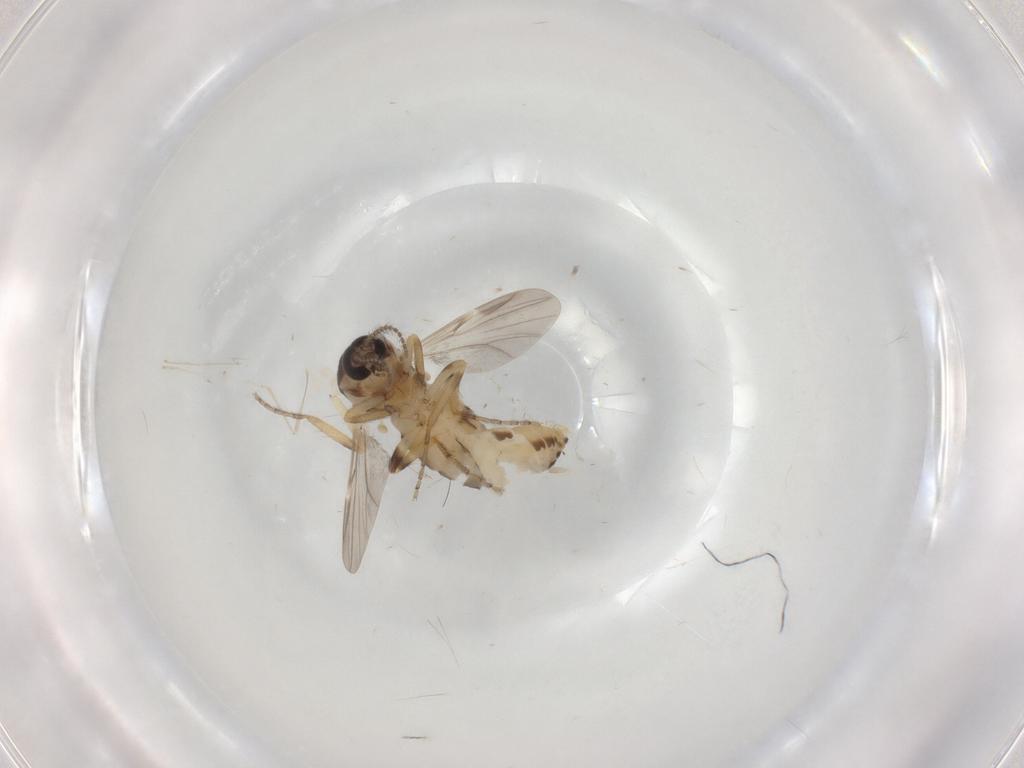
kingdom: Animalia
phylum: Arthropoda
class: Insecta
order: Diptera
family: Ceratopogonidae
